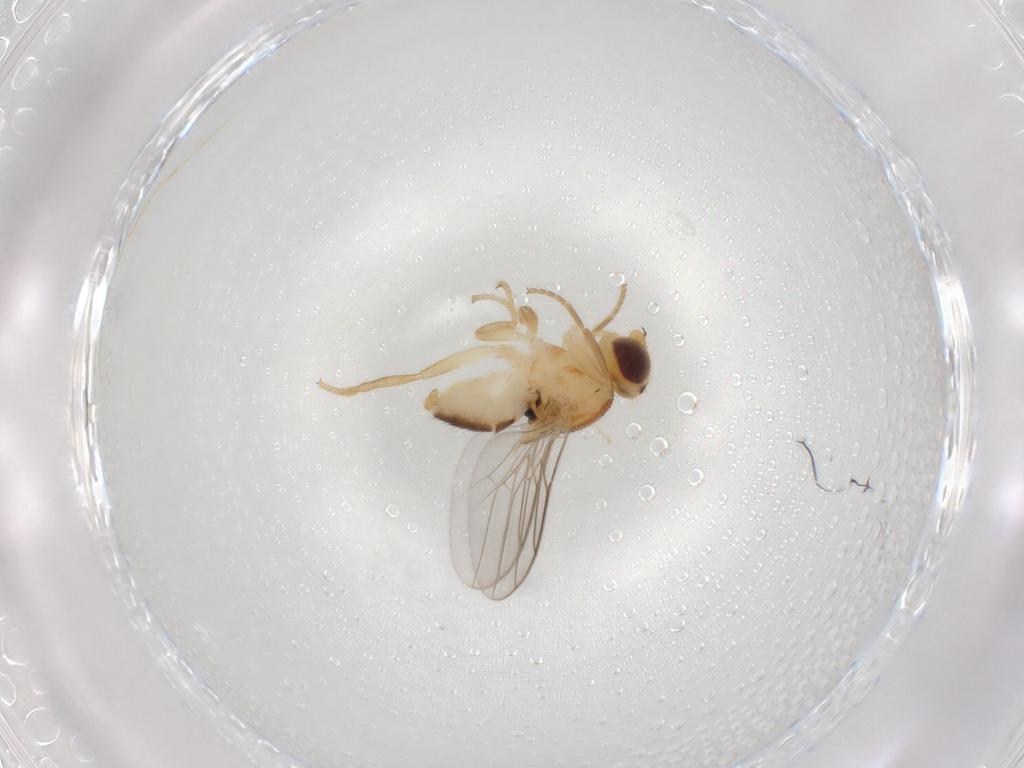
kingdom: Animalia
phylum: Arthropoda
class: Insecta
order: Diptera
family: Chloropidae
